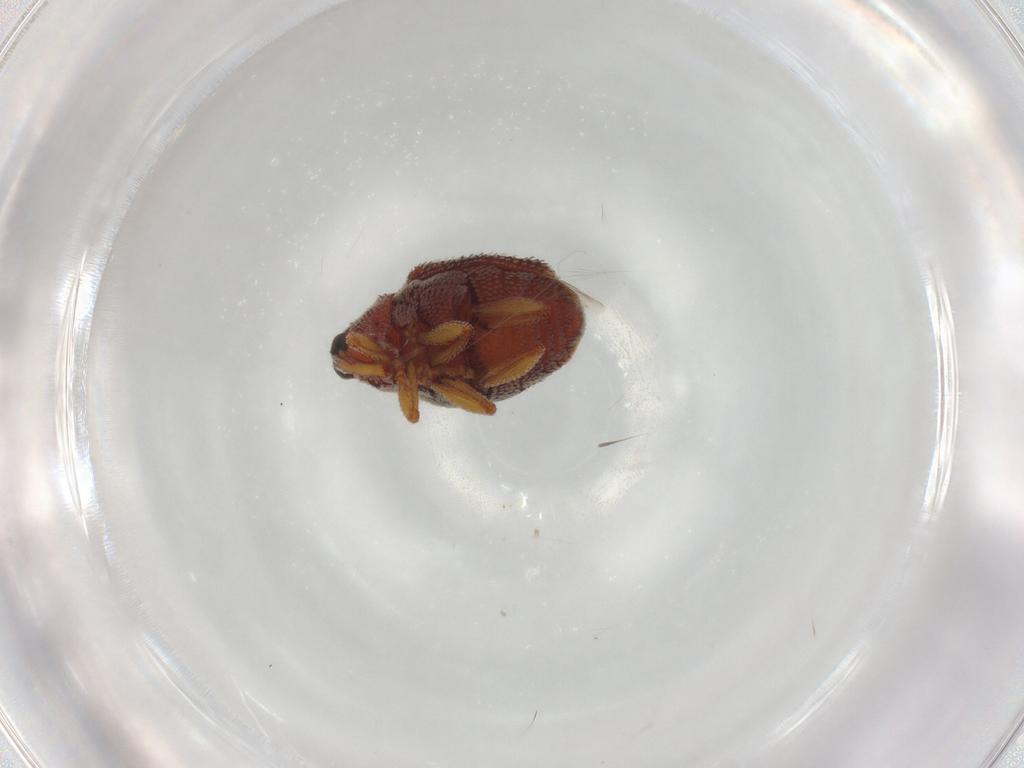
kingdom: Animalia
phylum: Arthropoda
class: Insecta
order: Coleoptera
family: Curculionidae
